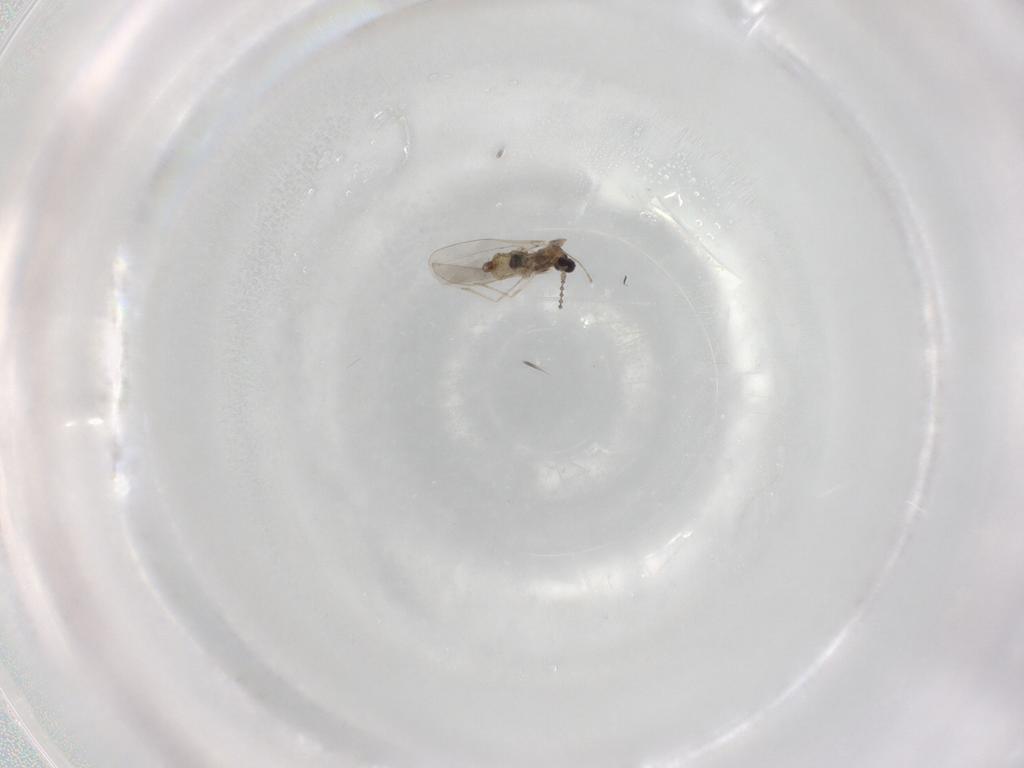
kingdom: Animalia
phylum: Arthropoda
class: Insecta
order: Diptera
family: Cecidomyiidae
